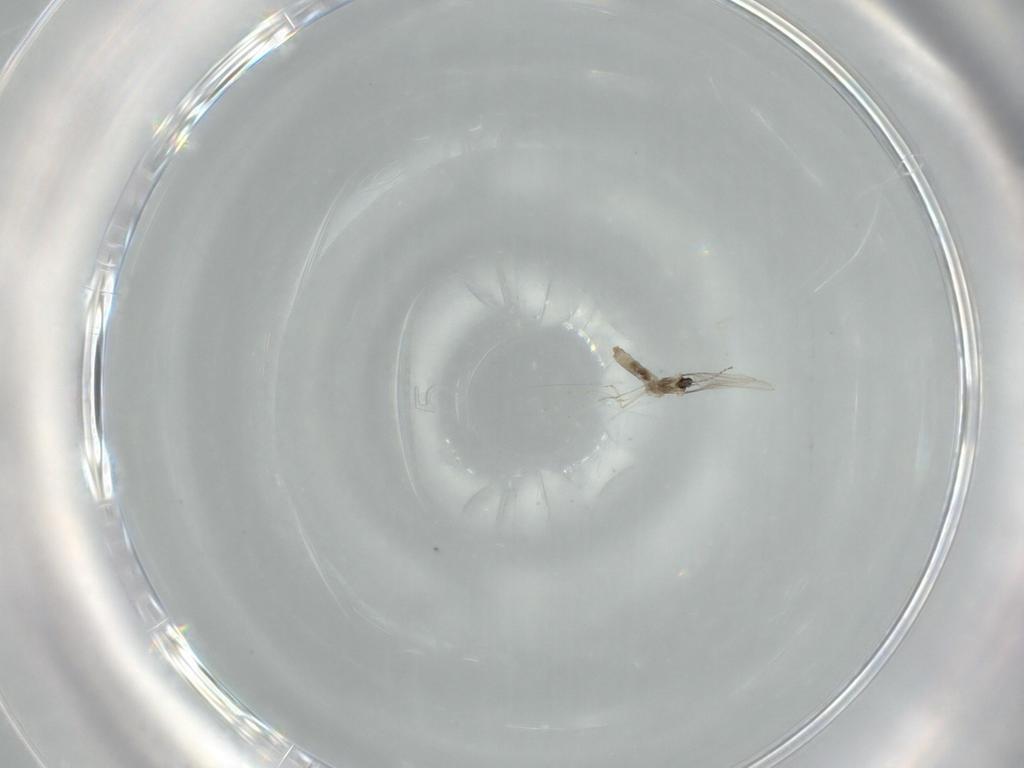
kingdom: Animalia
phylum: Arthropoda
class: Insecta
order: Diptera
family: Cecidomyiidae
